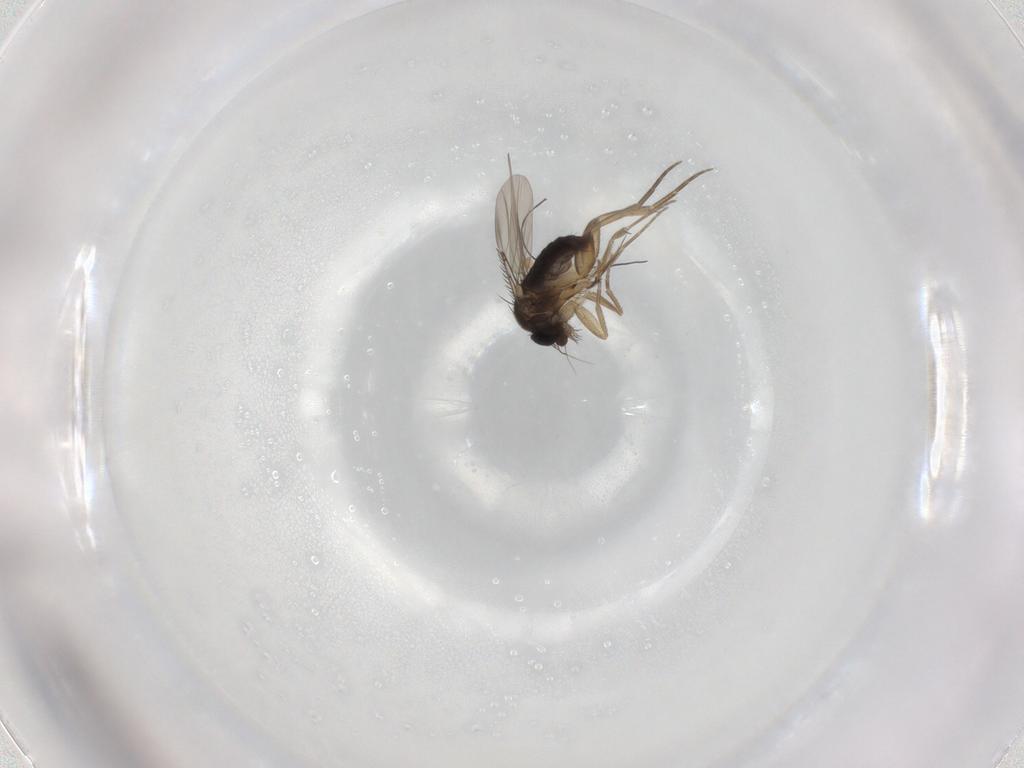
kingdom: Animalia
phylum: Arthropoda
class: Insecta
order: Diptera
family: Phoridae
